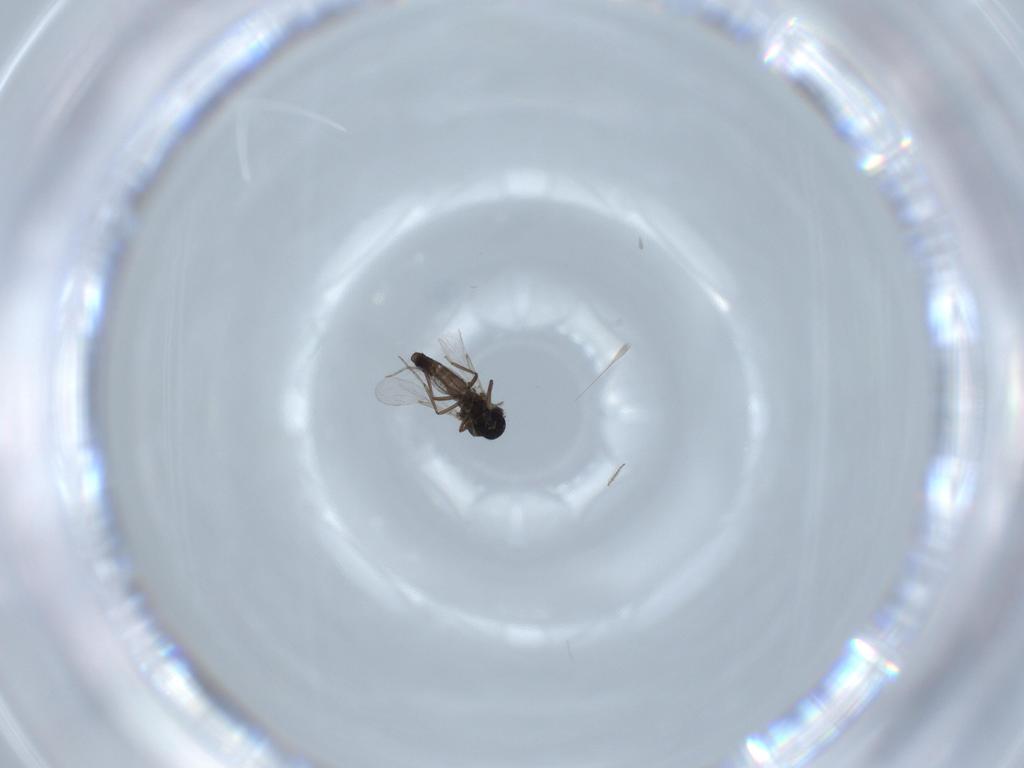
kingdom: Animalia
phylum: Arthropoda
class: Insecta
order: Diptera
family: Ceratopogonidae
